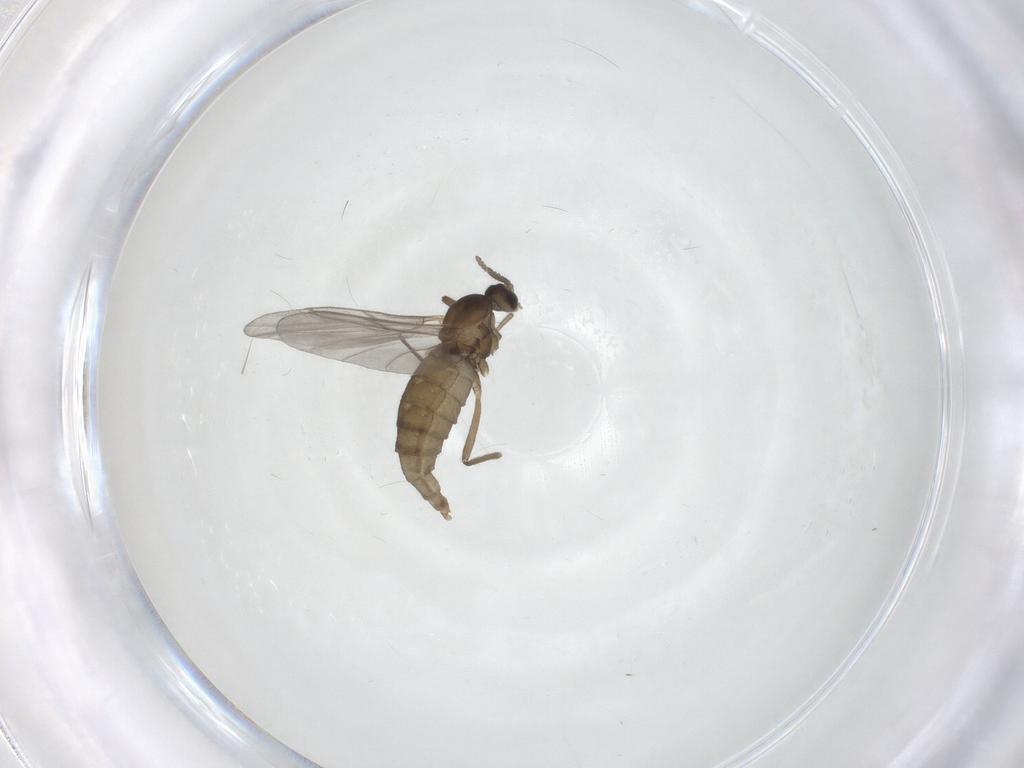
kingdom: Animalia
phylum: Arthropoda
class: Insecta
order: Diptera
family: Cecidomyiidae
